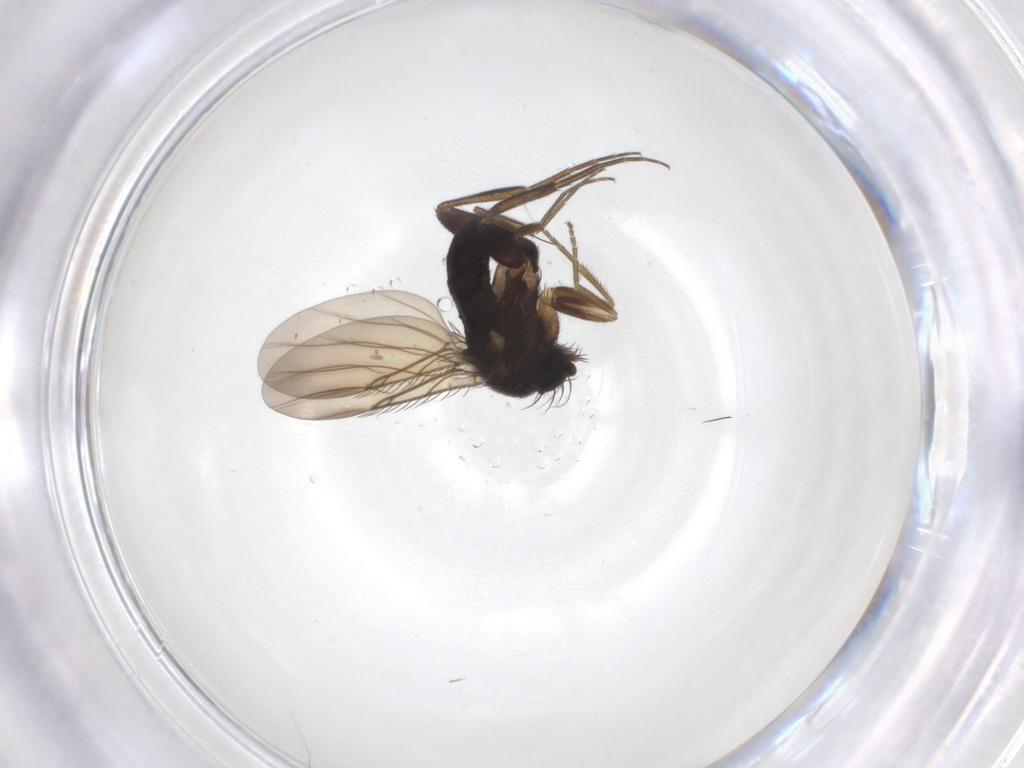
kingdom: Animalia
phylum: Arthropoda
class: Insecta
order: Diptera
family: Phoridae
